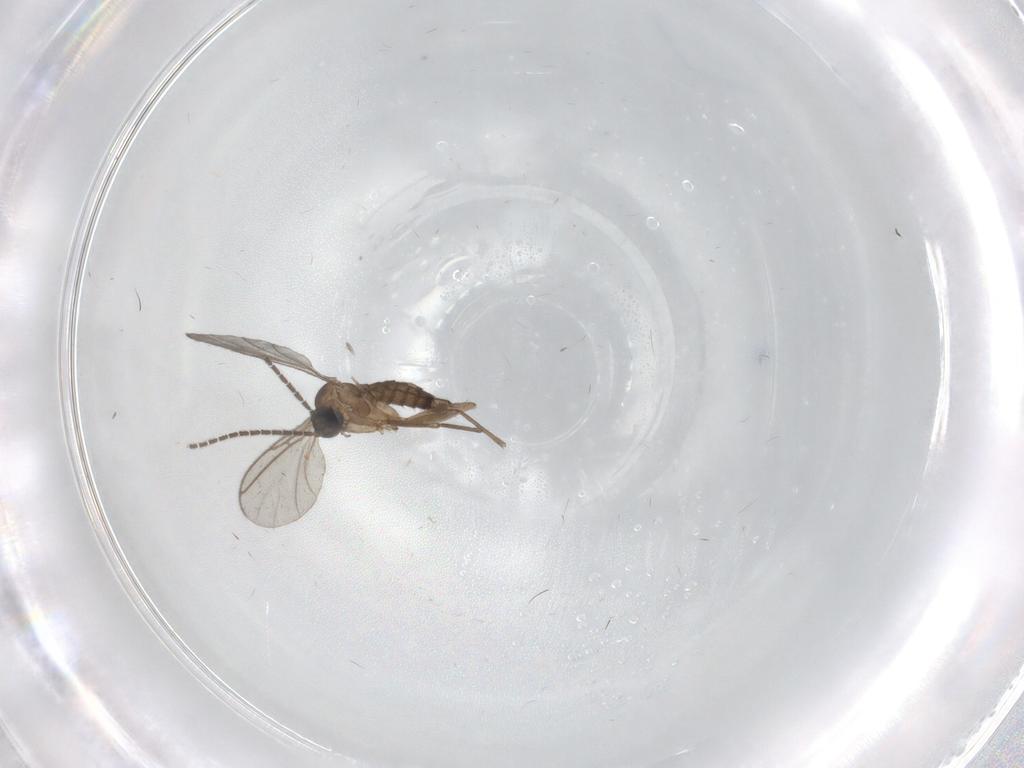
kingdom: Animalia
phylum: Arthropoda
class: Insecta
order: Diptera
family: Sciaridae
